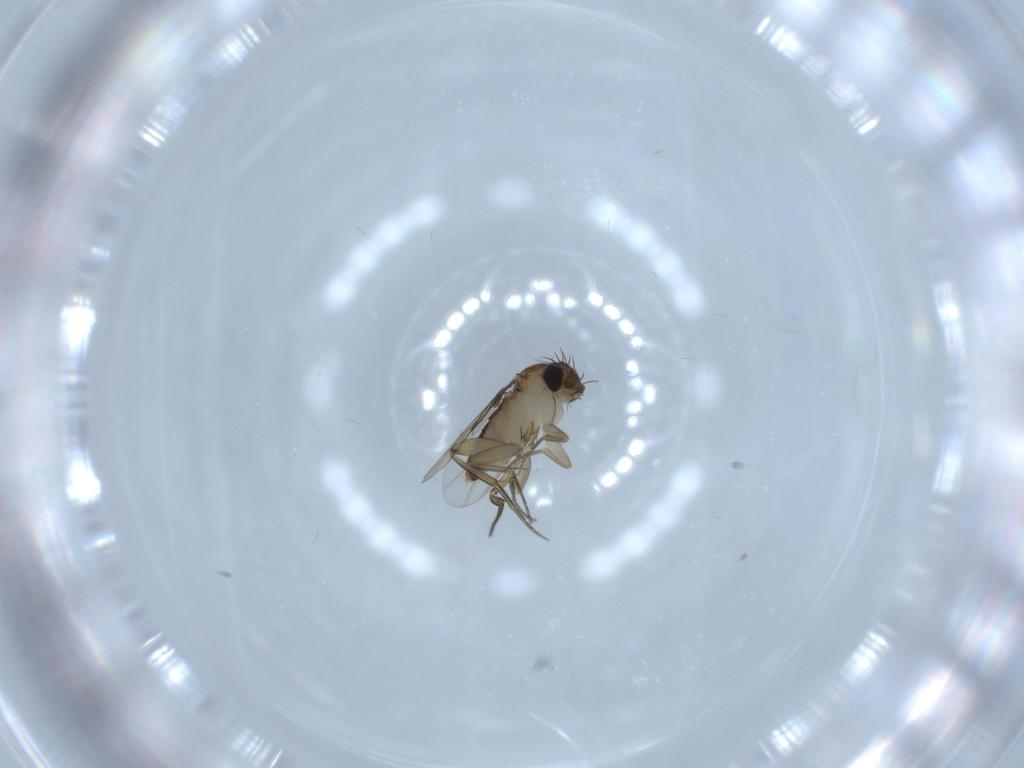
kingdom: Animalia
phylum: Arthropoda
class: Insecta
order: Diptera
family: Phoridae
